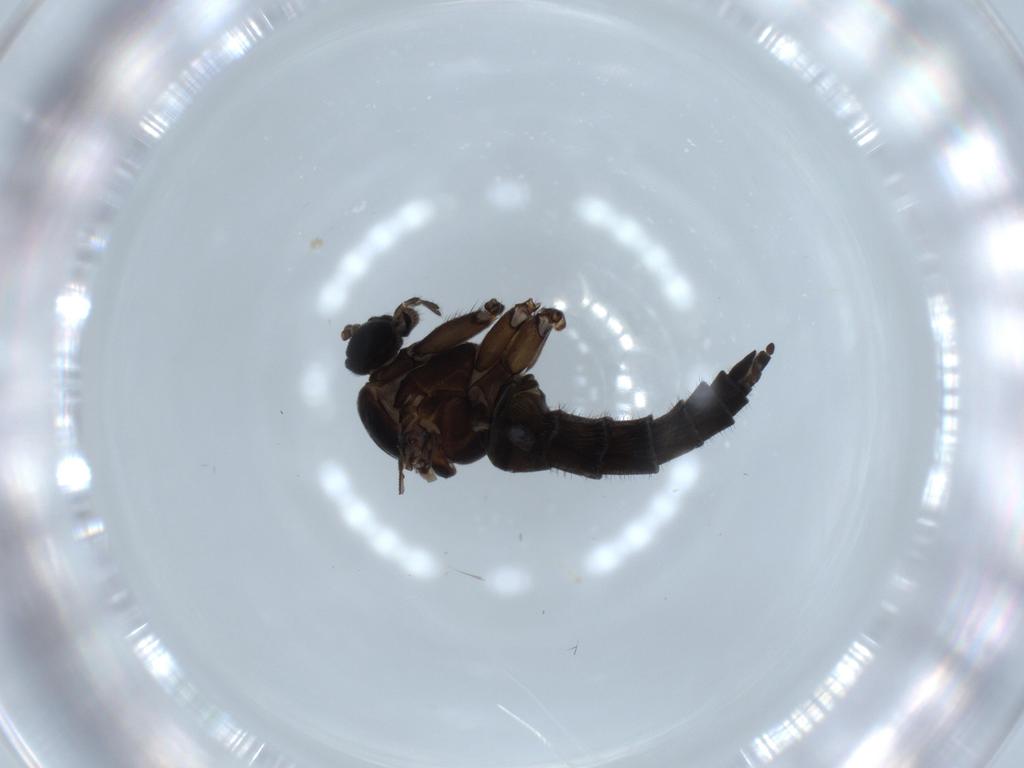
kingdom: Animalia
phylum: Arthropoda
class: Insecta
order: Diptera
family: Sciaridae
